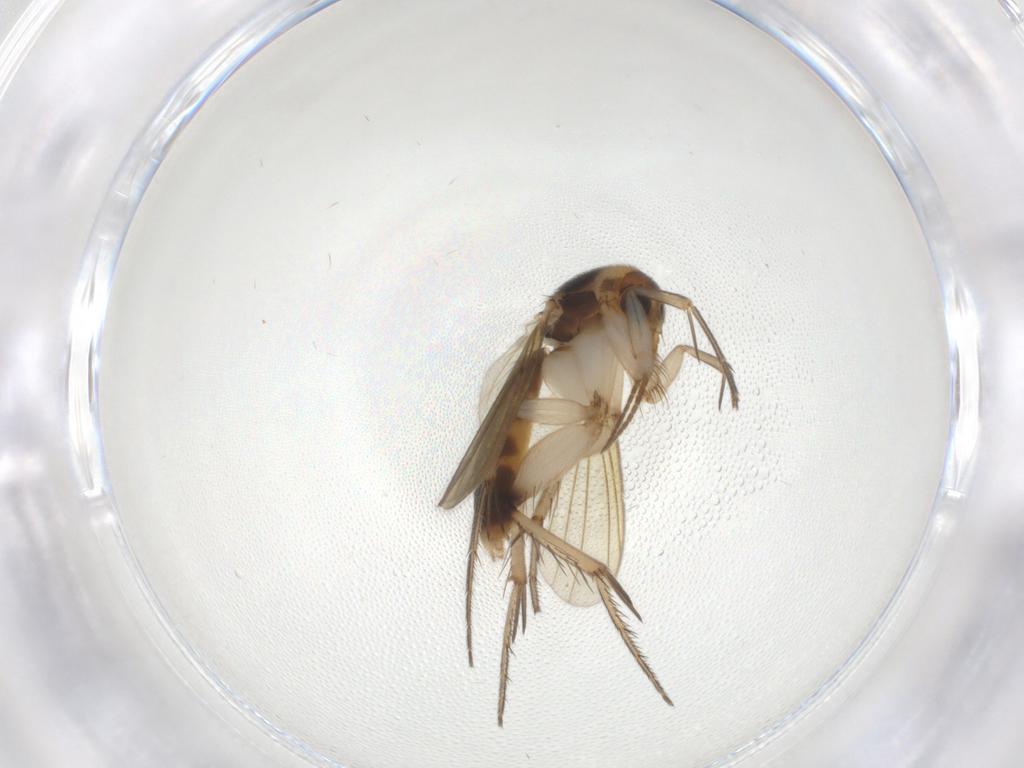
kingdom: Animalia
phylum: Arthropoda
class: Insecta
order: Diptera
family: Mycetophilidae
